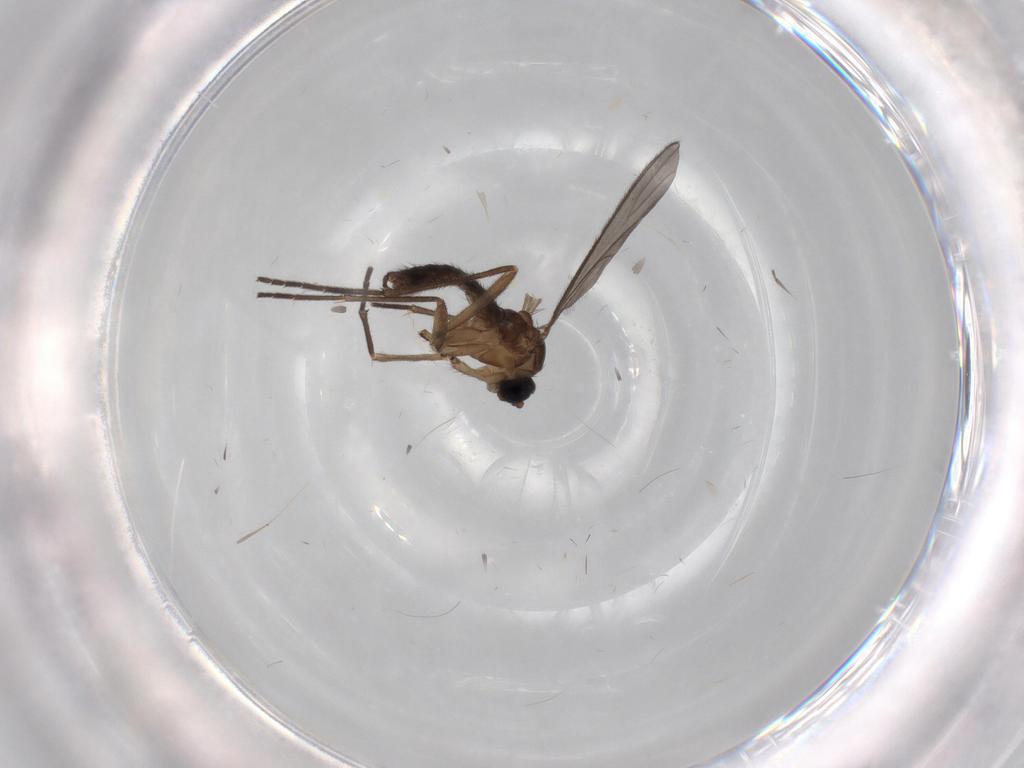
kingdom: Animalia
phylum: Arthropoda
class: Insecta
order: Diptera
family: Sciaridae
